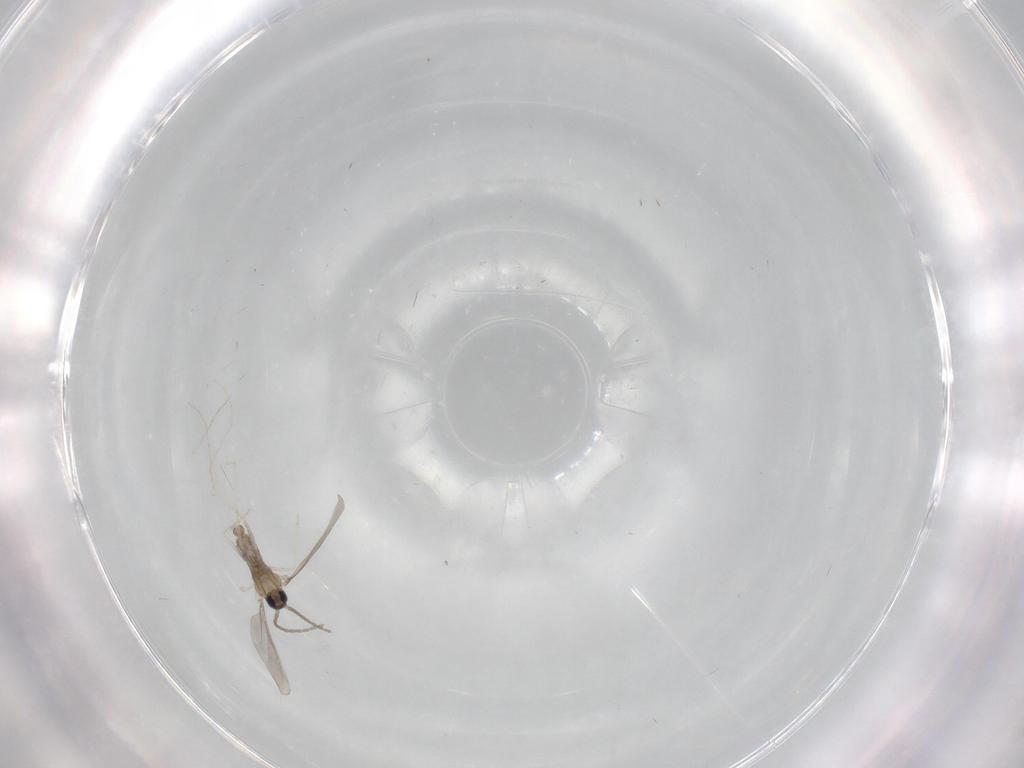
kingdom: Animalia
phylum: Arthropoda
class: Insecta
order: Diptera
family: Cecidomyiidae
